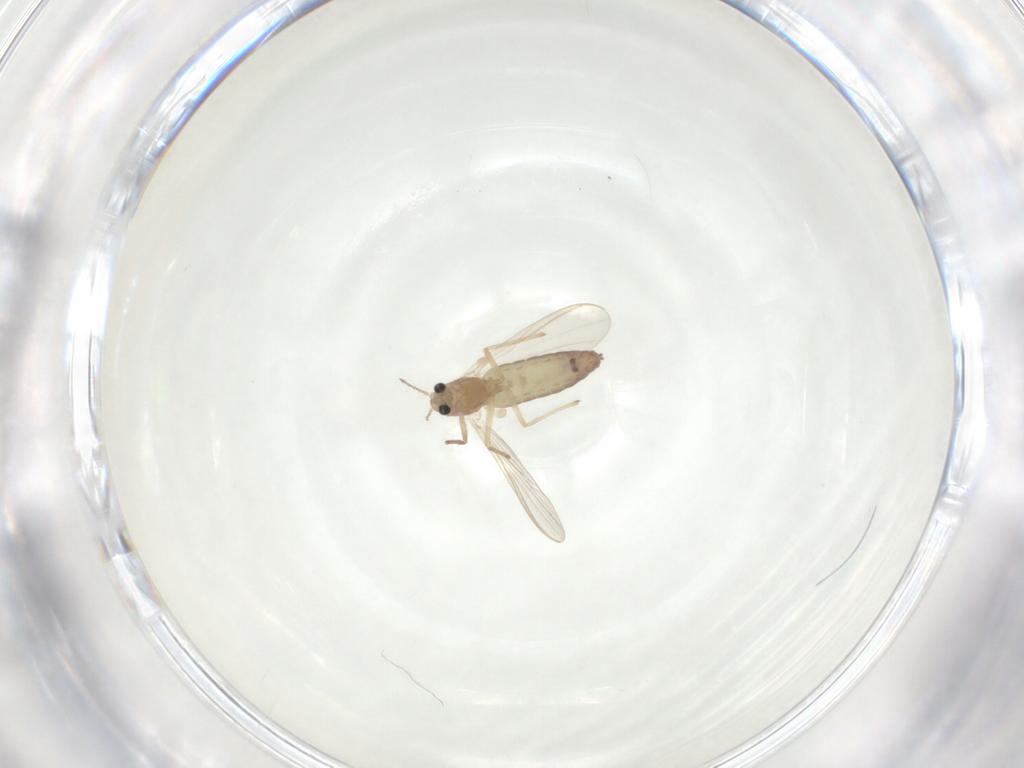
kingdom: Animalia
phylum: Arthropoda
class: Insecta
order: Diptera
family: Chironomidae
